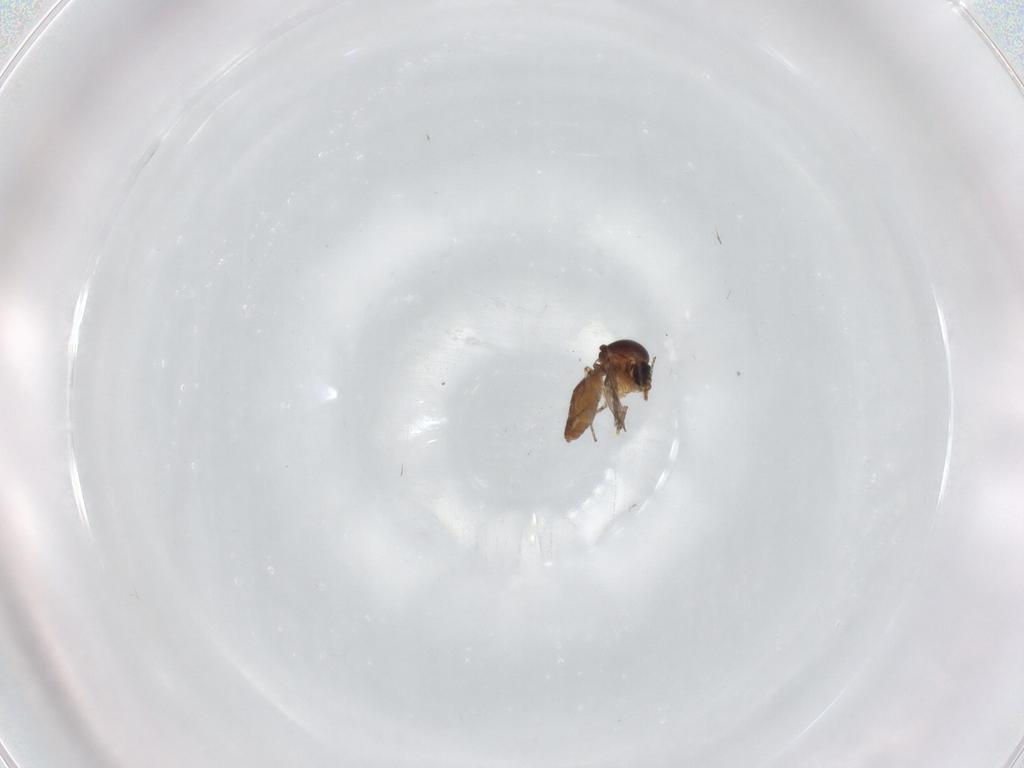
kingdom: Animalia
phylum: Arthropoda
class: Insecta
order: Diptera
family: Chironomidae
